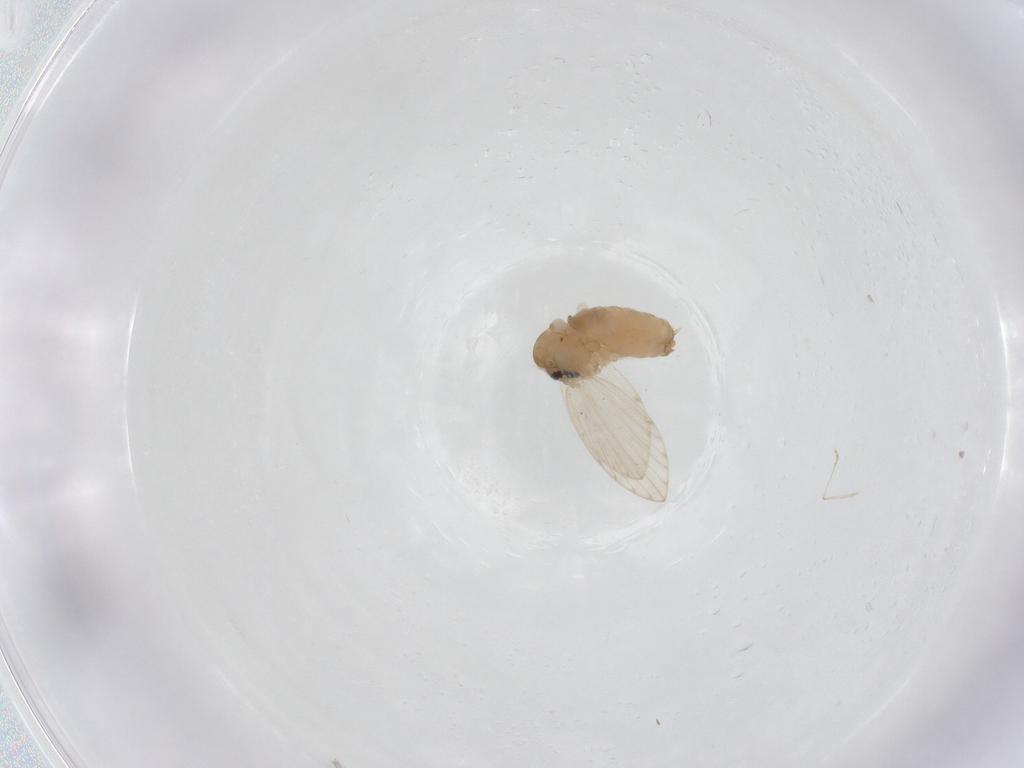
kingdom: Animalia
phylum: Arthropoda
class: Insecta
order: Diptera
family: Psychodidae
